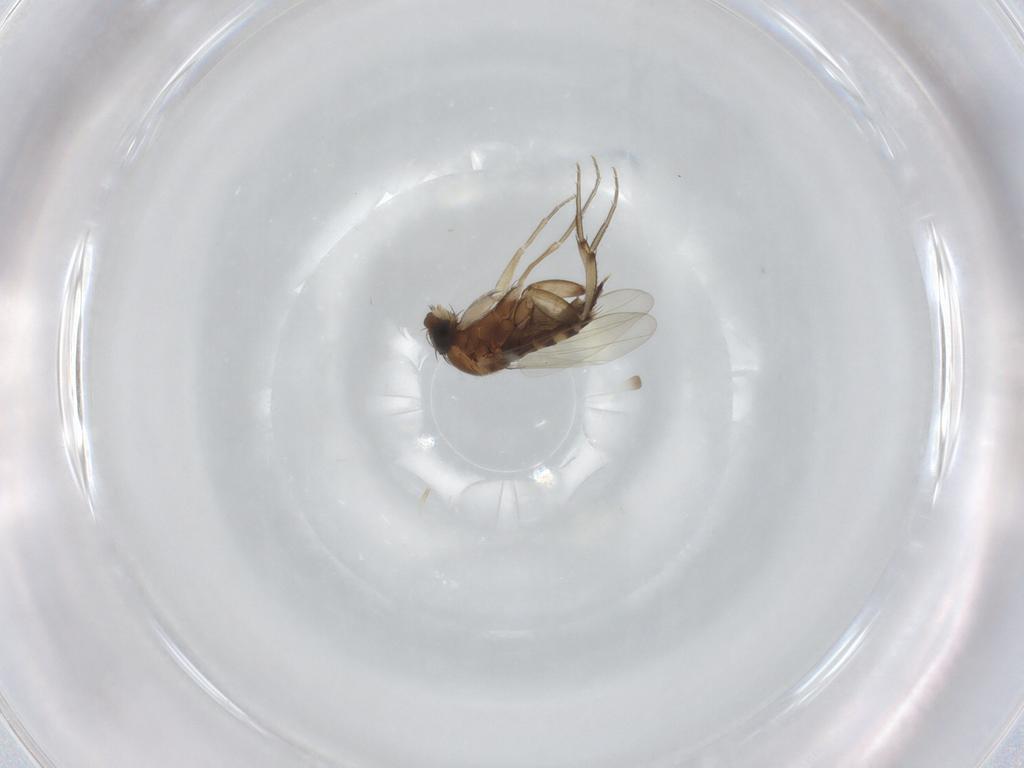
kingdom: Animalia
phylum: Arthropoda
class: Insecta
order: Diptera
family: Phoridae
